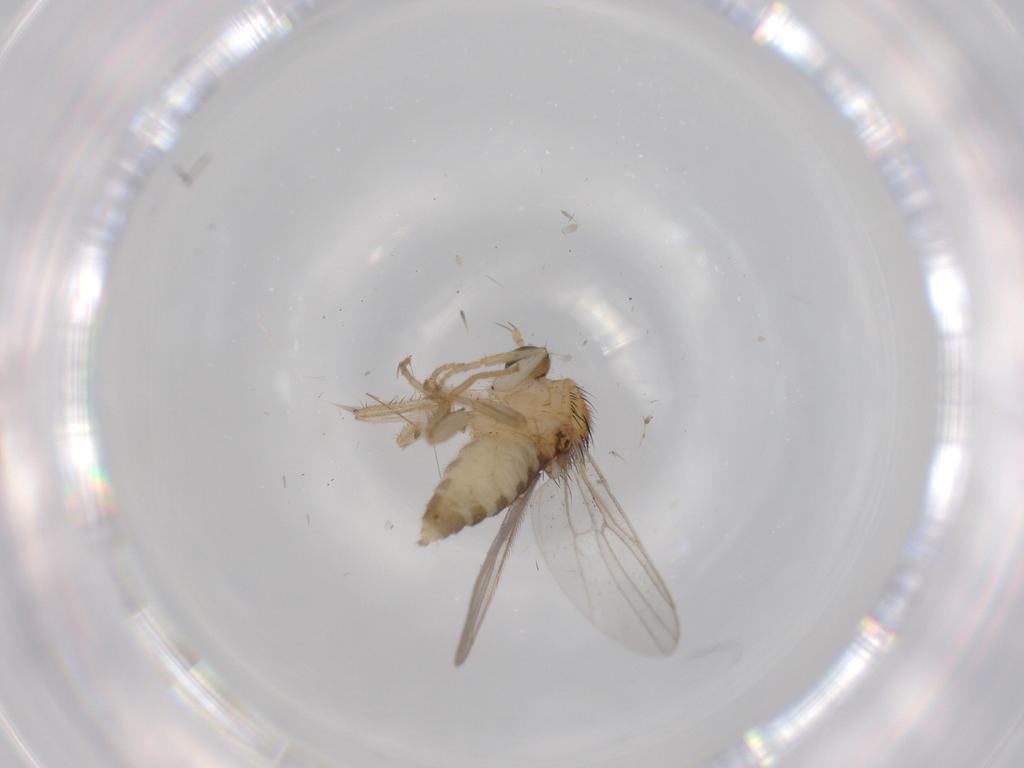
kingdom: Animalia
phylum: Arthropoda
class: Insecta
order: Diptera
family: Hybotidae
